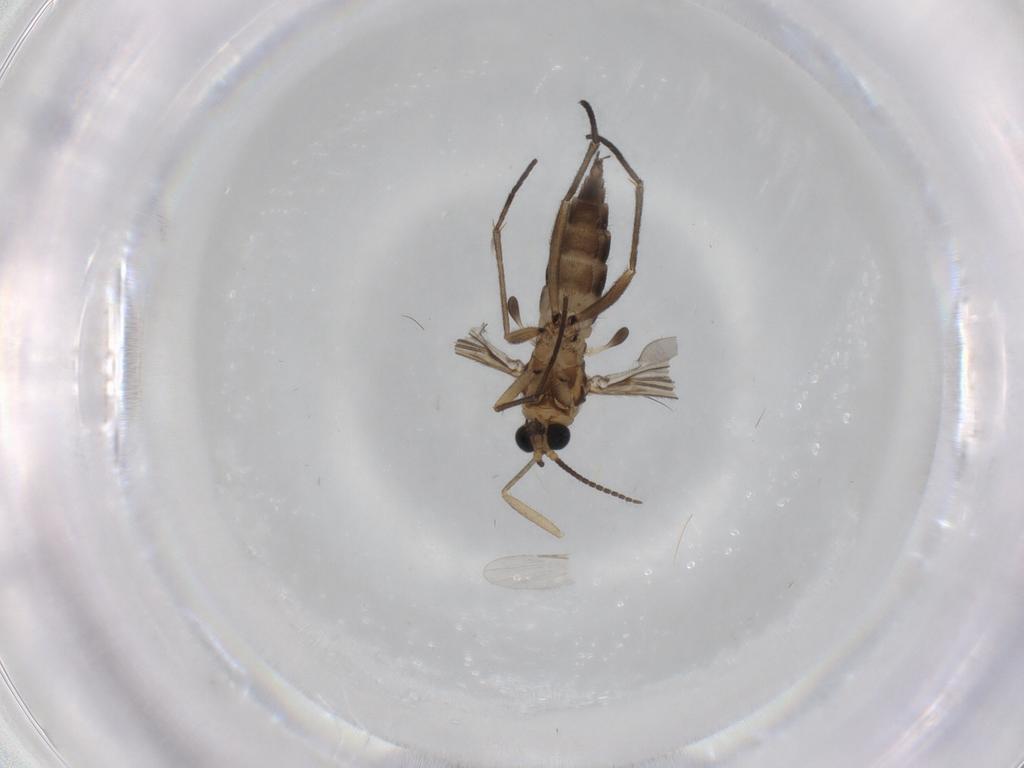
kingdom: Animalia
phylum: Arthropoda
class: Insecta
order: Diptera
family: Sciaridae
